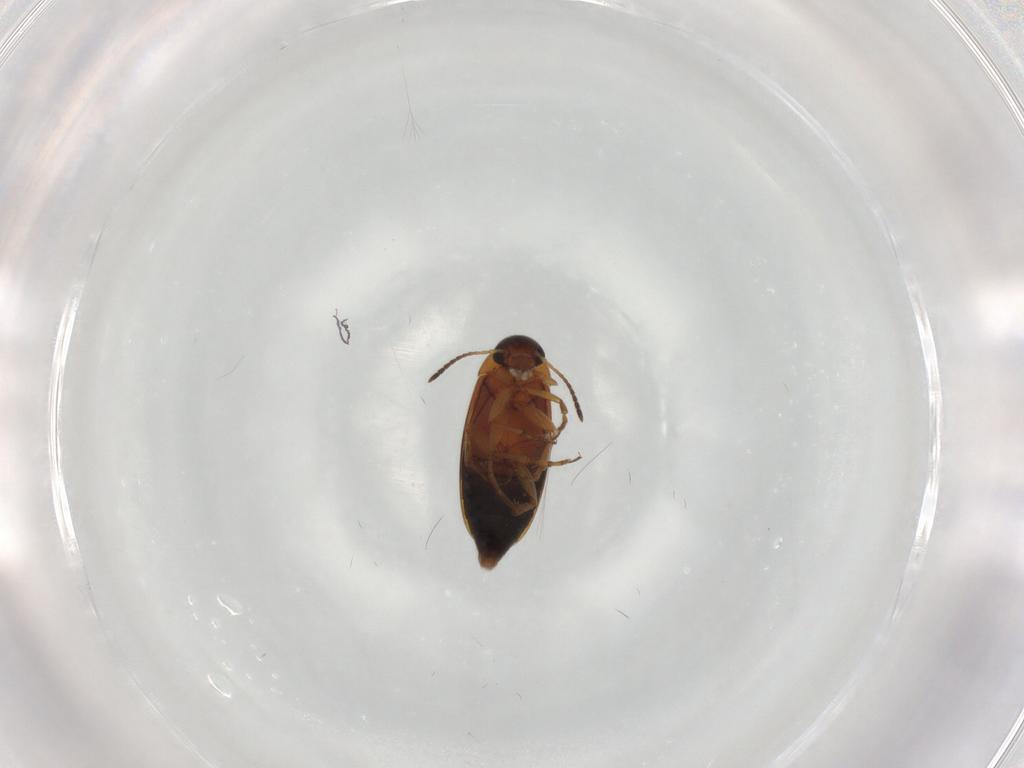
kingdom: Animalia
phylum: Arthropoda
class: Insecta
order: Coleoptera
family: Scraptiidae
